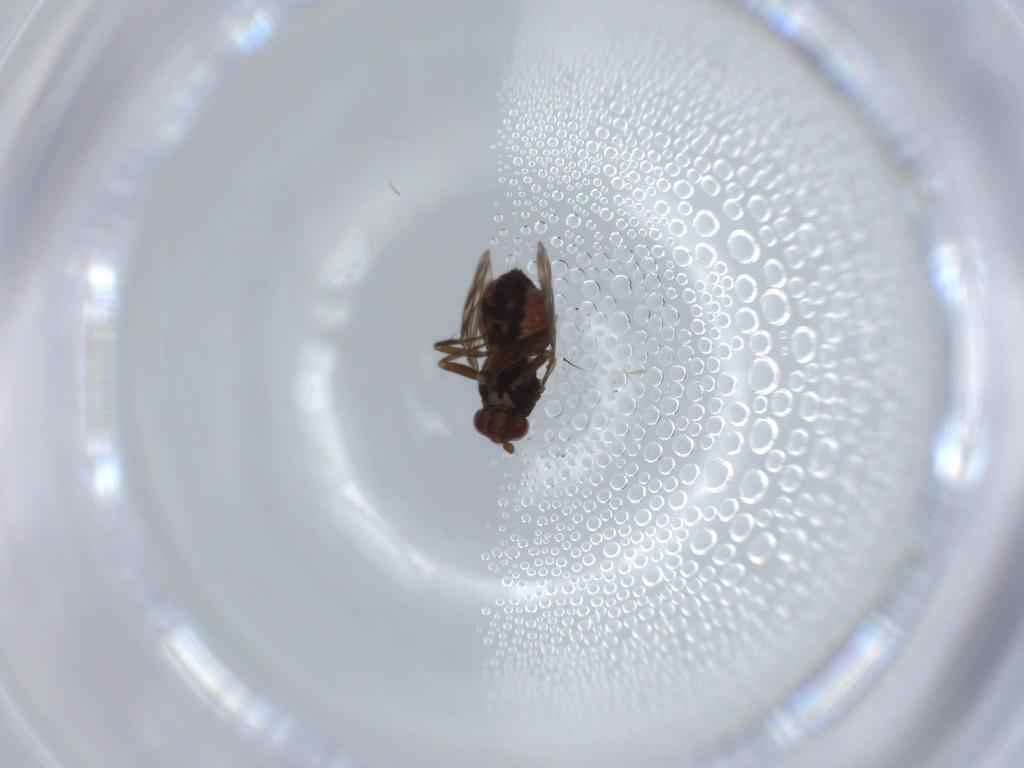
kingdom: Animalia
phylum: Arthropoda
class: Insecta
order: Diptera
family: Sphaeroceridae
